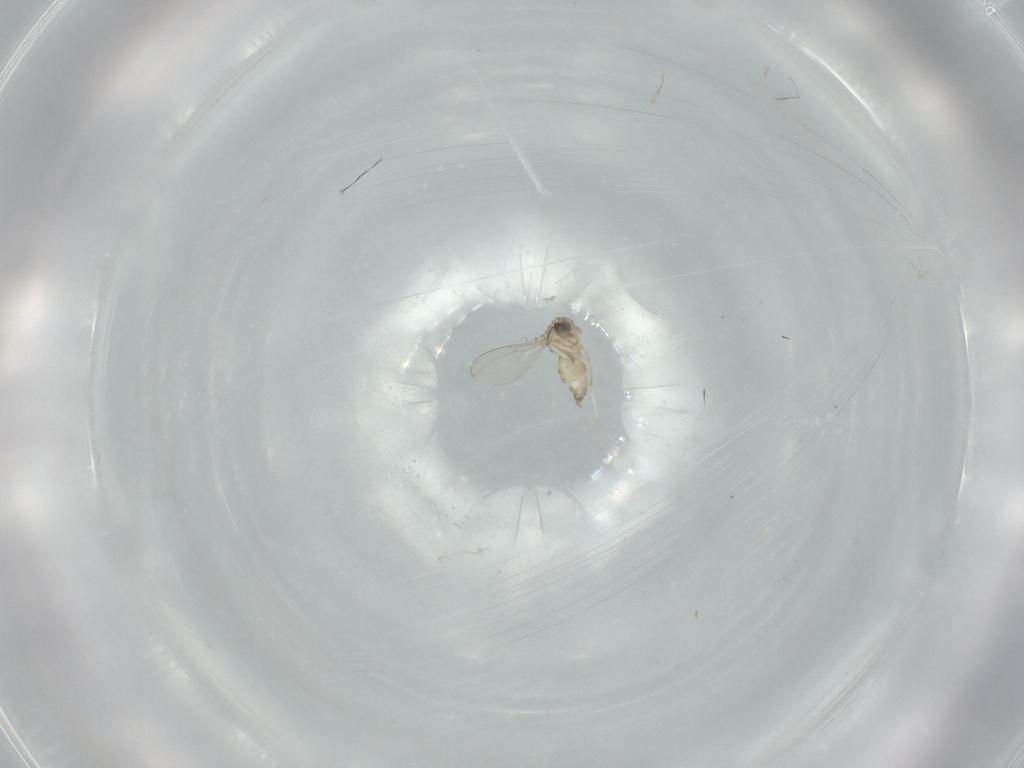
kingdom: Animalia
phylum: Arthropoda
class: Insecta
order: Diptera
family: Cecidomyiidae
